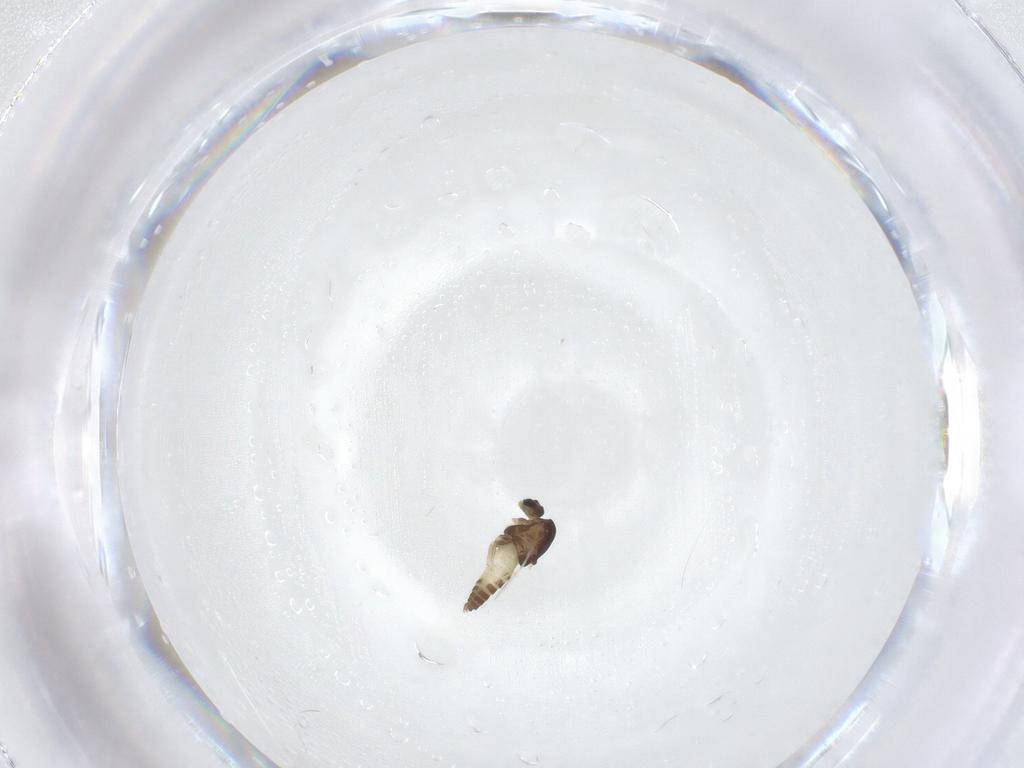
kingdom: Animalia
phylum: Arthropoda
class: Insecta
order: Diptera
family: Chironomidae
